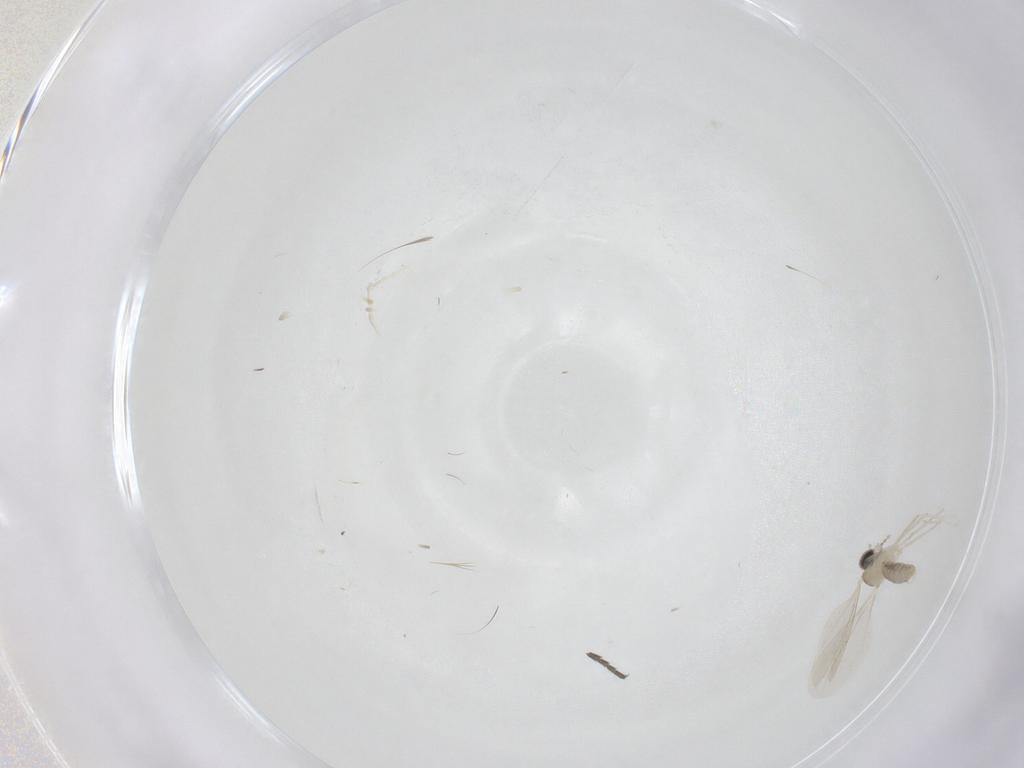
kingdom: Animalia
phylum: Arthropoda
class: Insecta
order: Diptera
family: Cecidomyiidae
